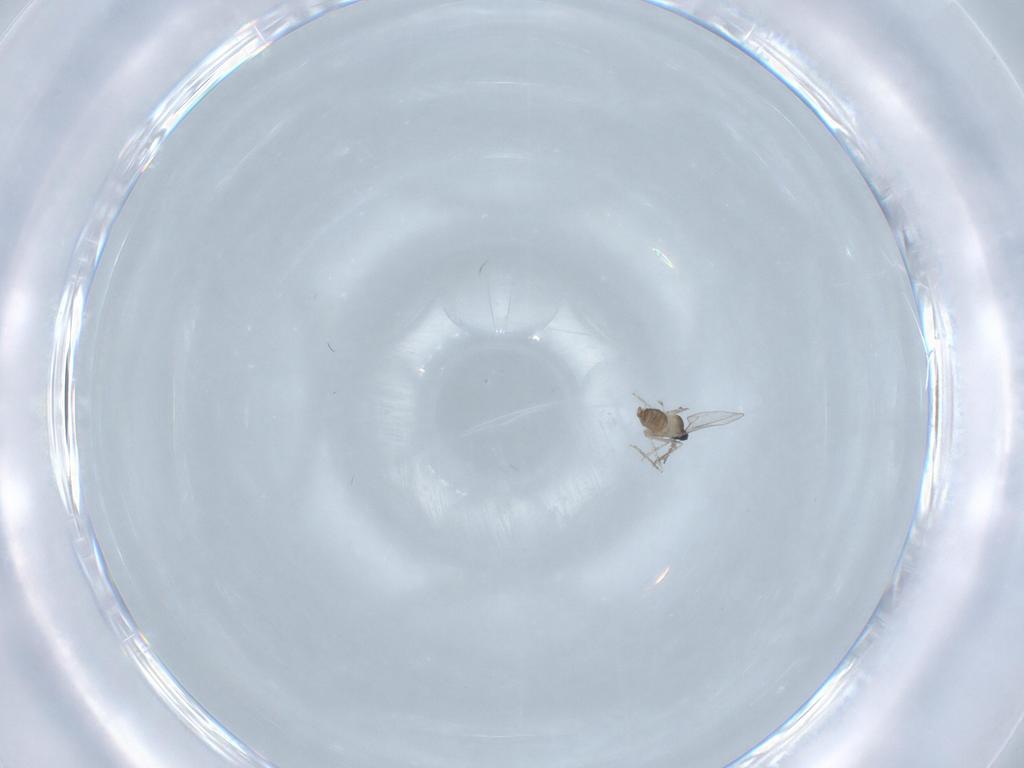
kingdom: Animalia
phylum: Arthropoda
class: Insecta
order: Diptera
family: Cecidomyiidae
